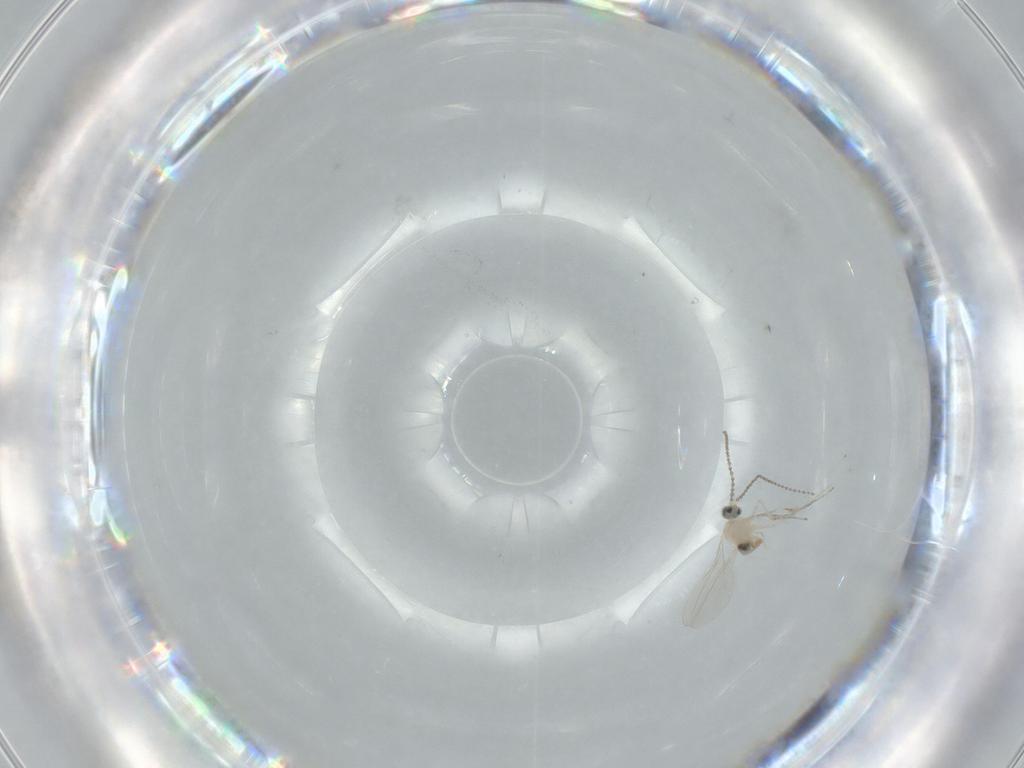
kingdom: Animalia
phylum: Arthropoda
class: Insecta
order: Diptera
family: Cecidomyiidae
